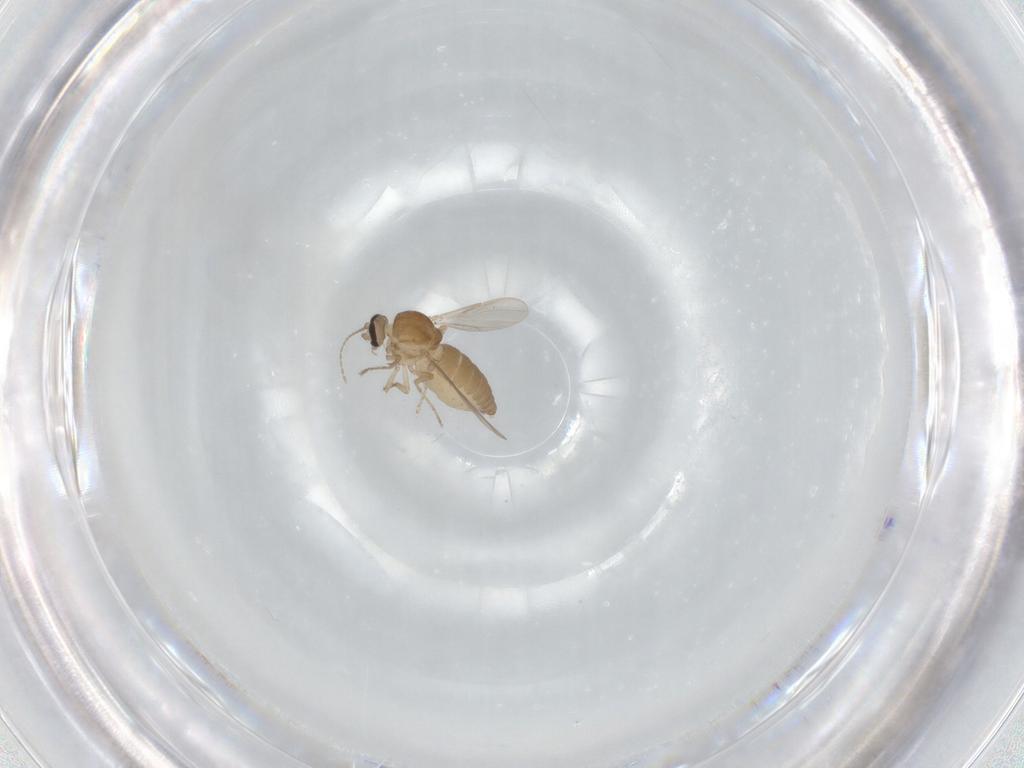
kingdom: Animalia
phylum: Arthropoda
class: Insecta
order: Diptera
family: Ceratopogonidae
